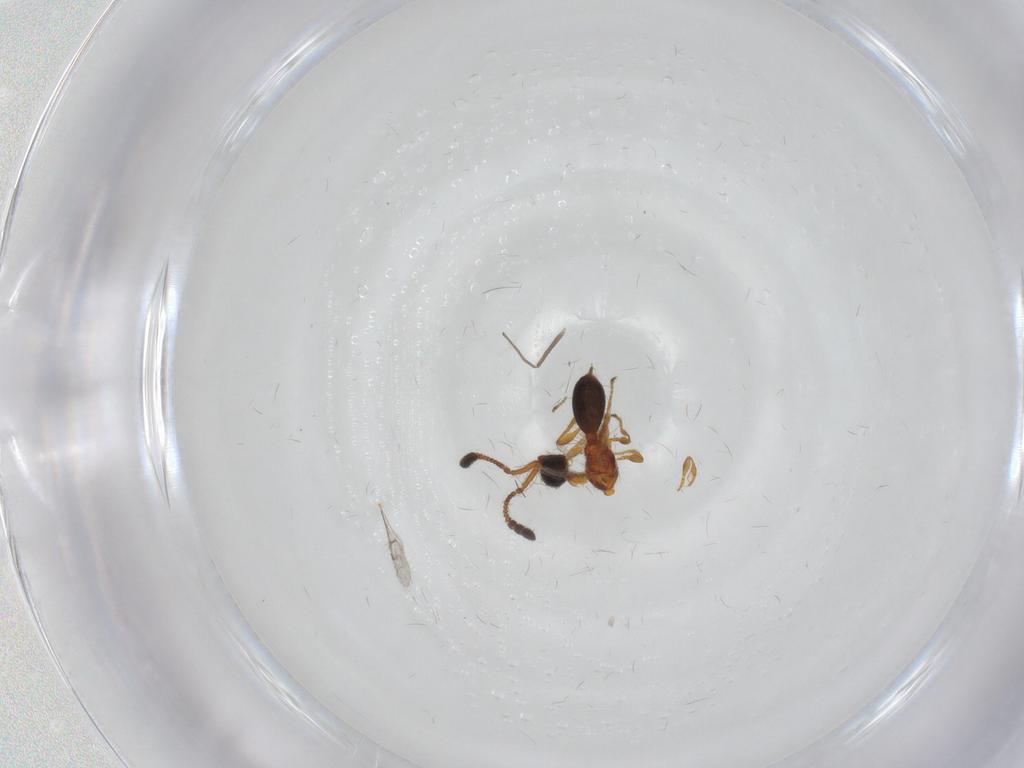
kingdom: Animalia
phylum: Arthropoda
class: Insecta
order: Hymenoptera
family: Diapriidae
